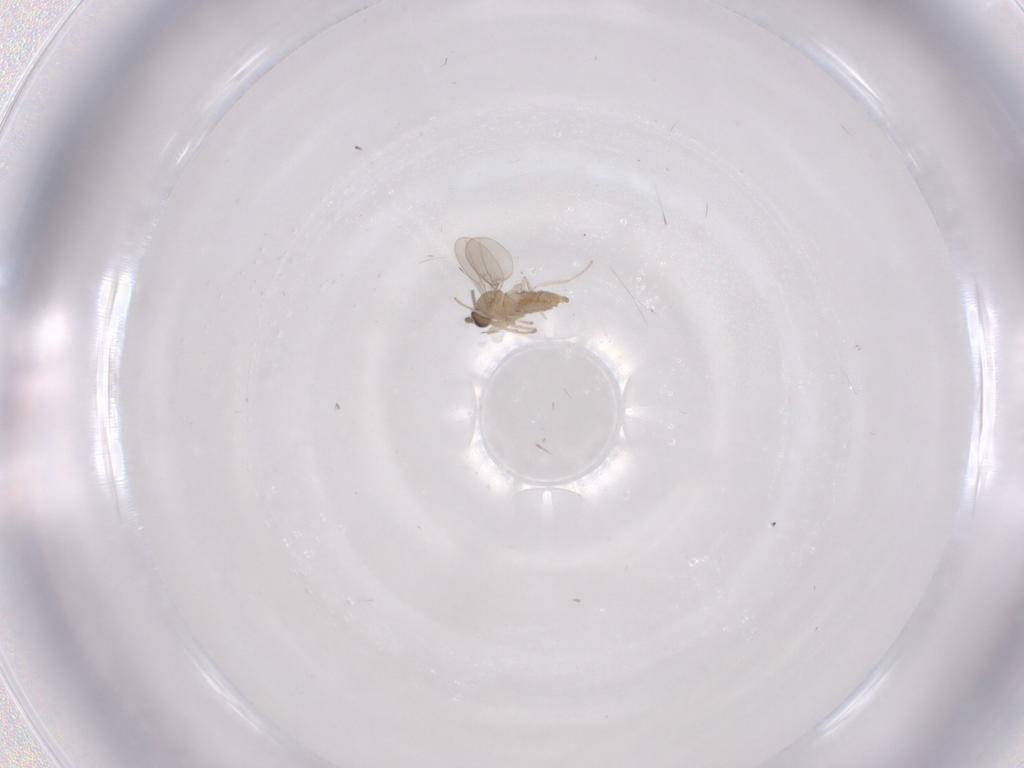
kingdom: Animalia
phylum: Arthropoda
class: Insecta
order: Diptera
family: Cecidomyiidae
